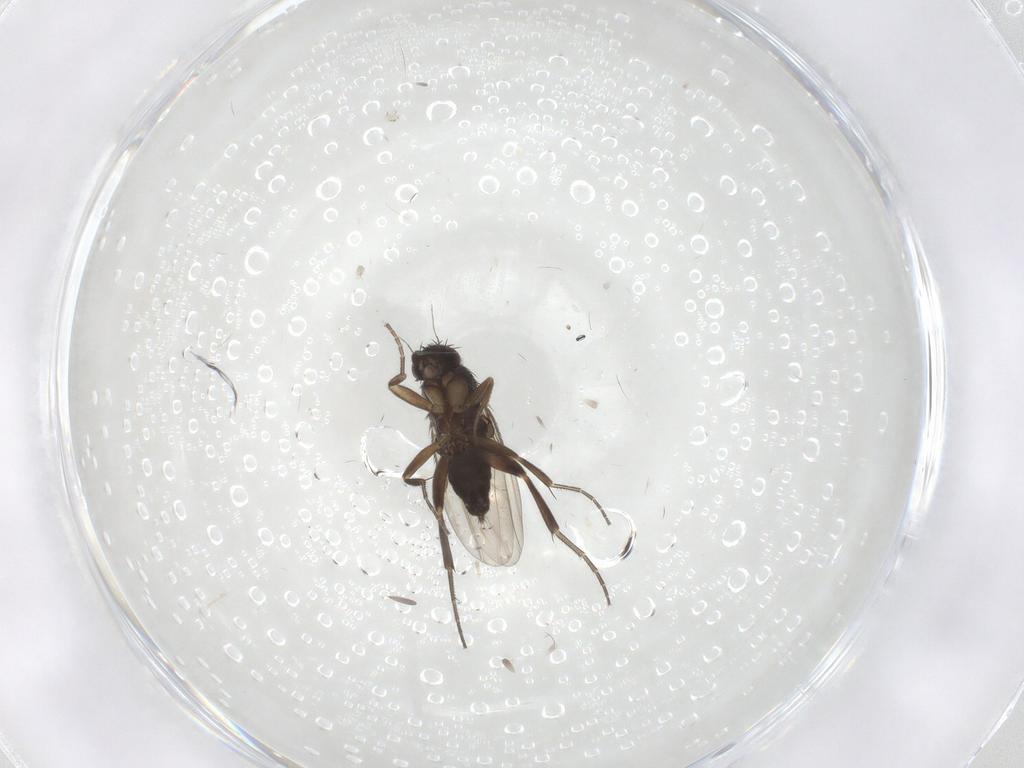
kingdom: Animalia
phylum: Arthropoda
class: Insecta
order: Diptera
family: Phoridae
